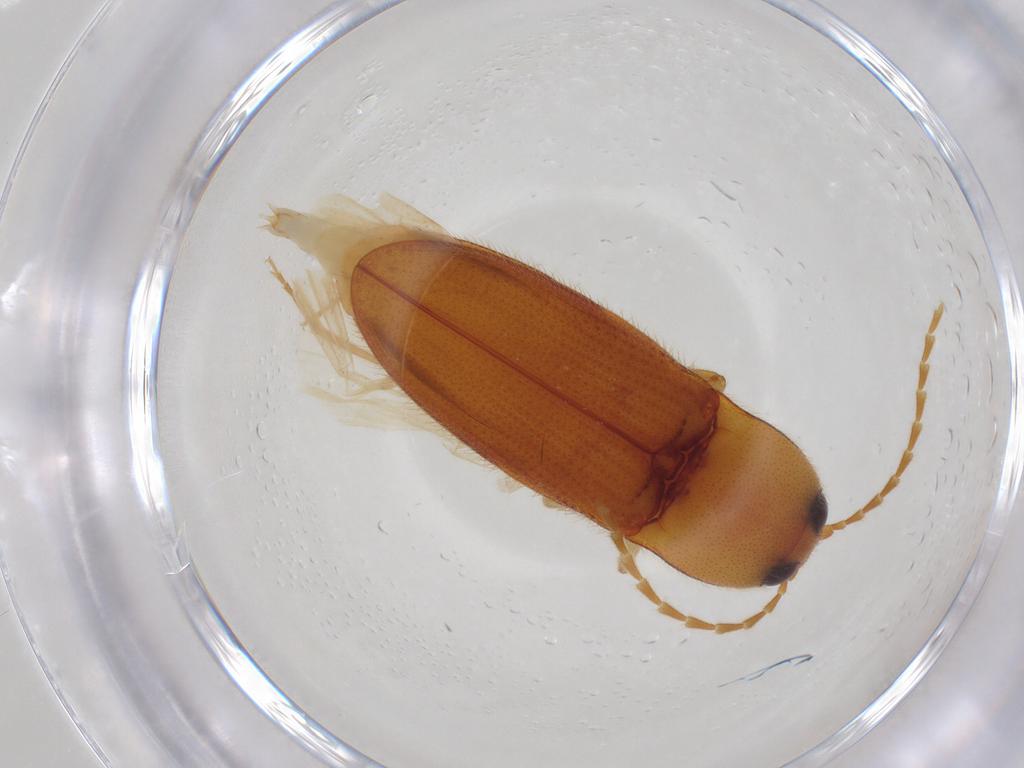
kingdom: Animalia
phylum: Arthropoda
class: Insecta
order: Coleoptera
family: Elateridae
